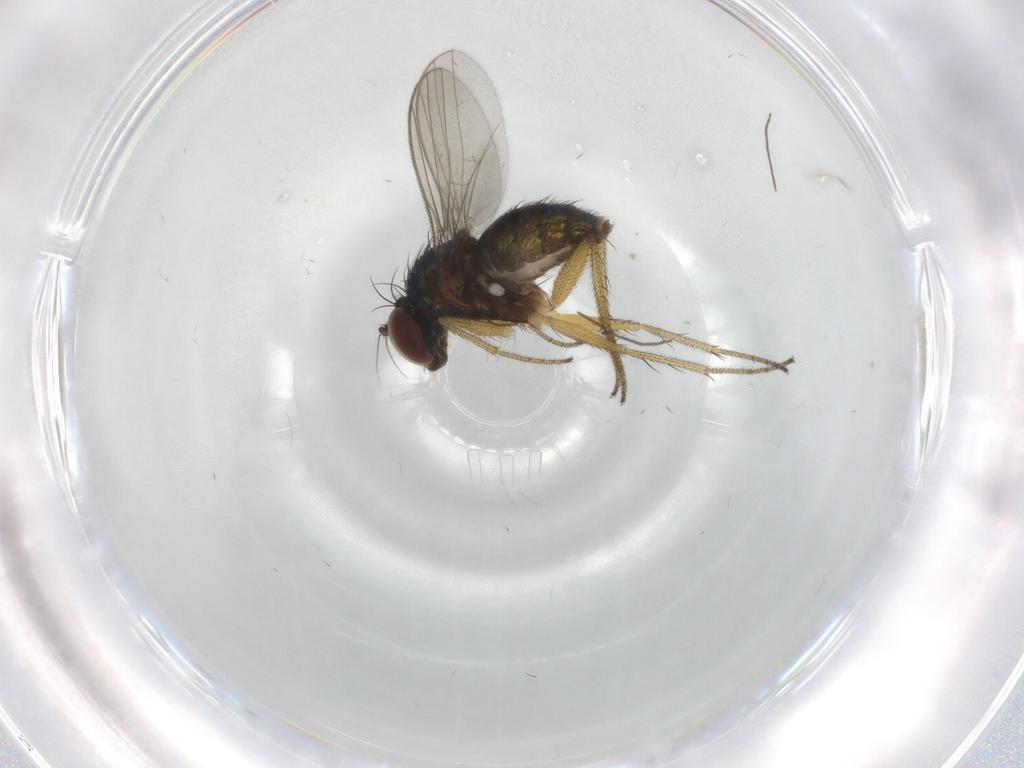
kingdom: Animalia
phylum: Arthropoda
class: Insecta
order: Diptera
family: Chironomidae
